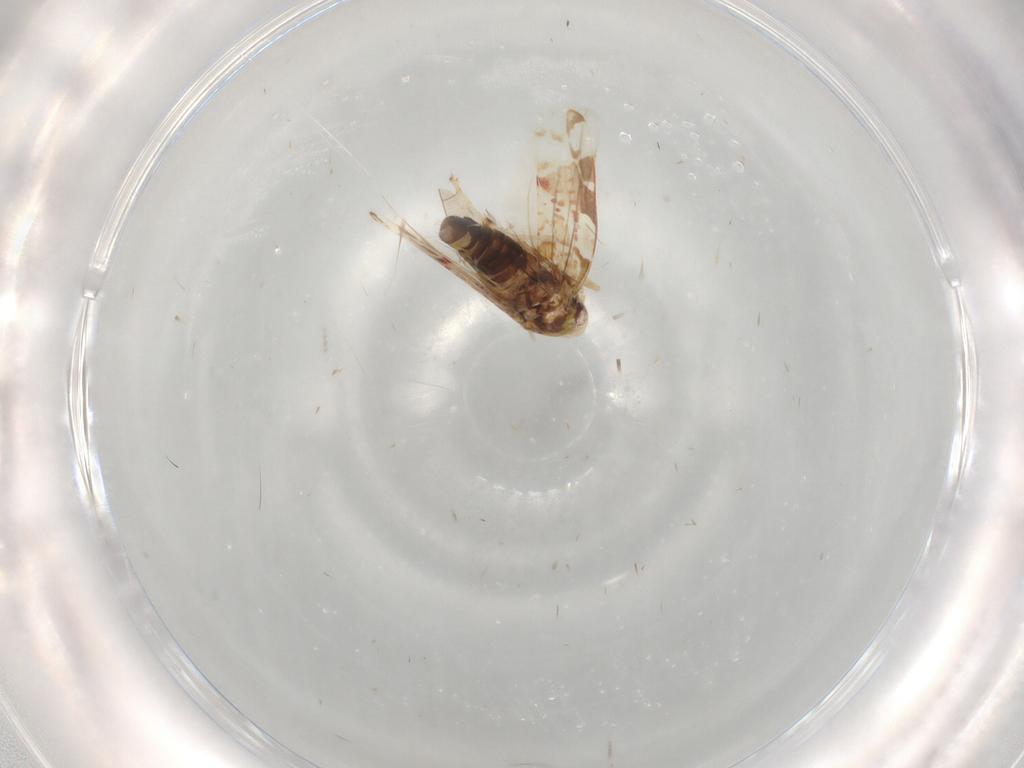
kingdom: Animalia
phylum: Arthropoda
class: Insecta
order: Hemiptera
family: Cicadellidae
